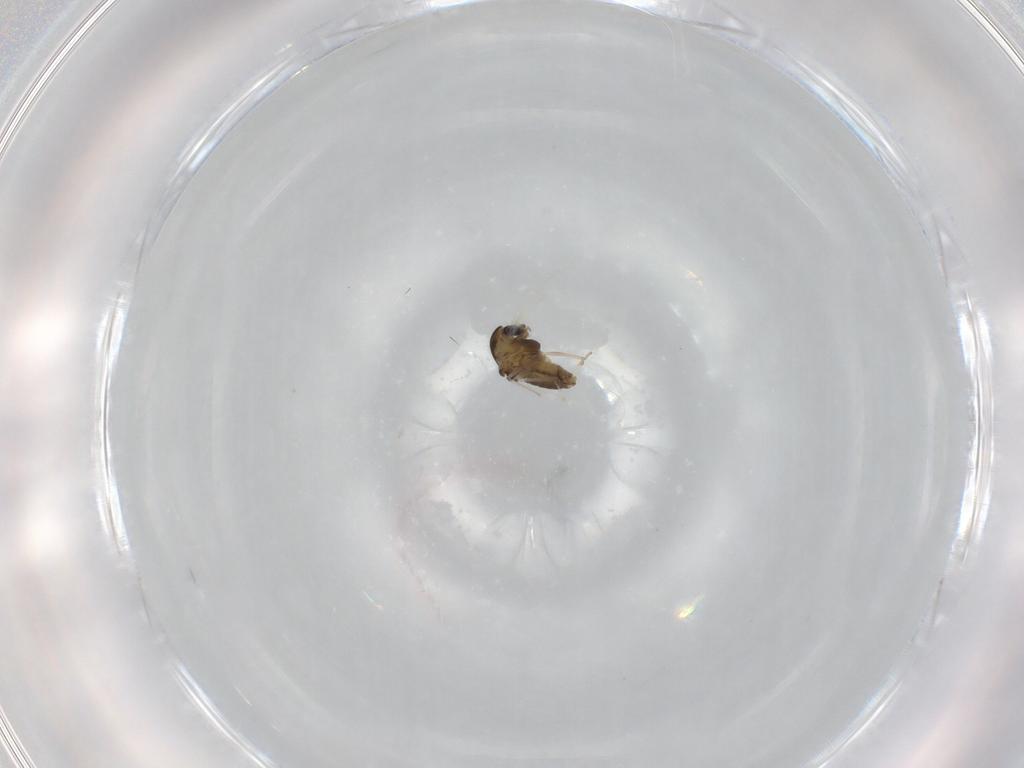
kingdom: Animalia
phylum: Arthropoda
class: Insecta
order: Diptera
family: Chironomidae
